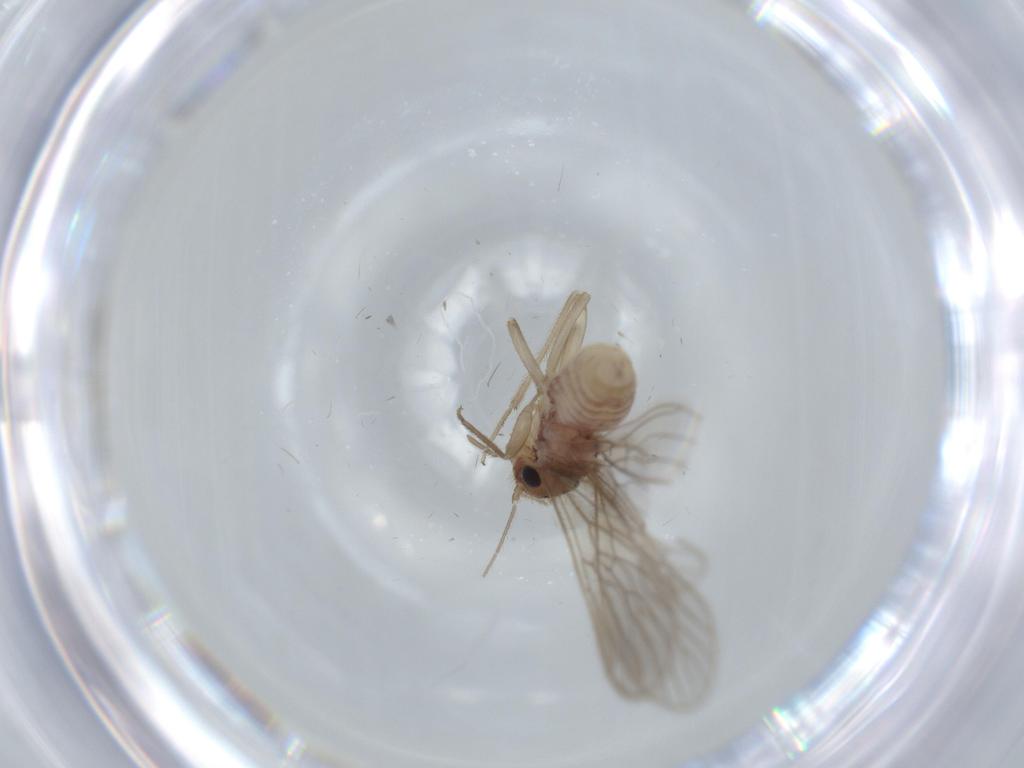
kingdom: Animalia
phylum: Arthropoda
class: Insecta
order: Psocodea
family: Cladiopsocidae
